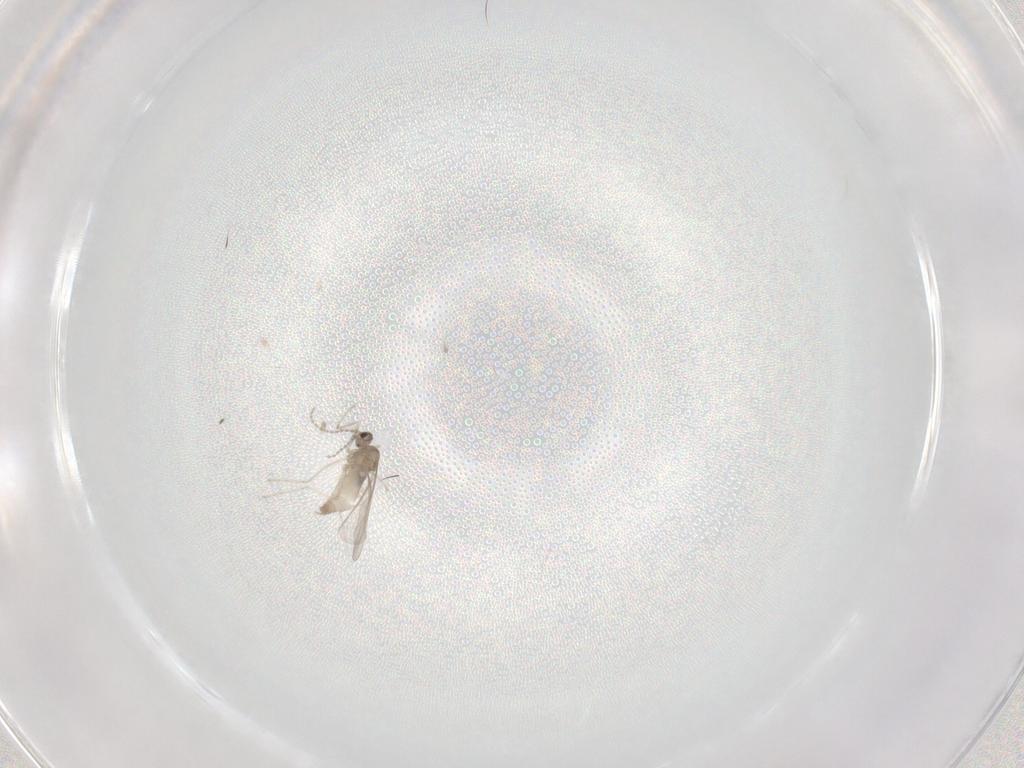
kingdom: Animalia
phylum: Arthropoda
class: Insecta
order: Diptera
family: Cecidomyiidae
